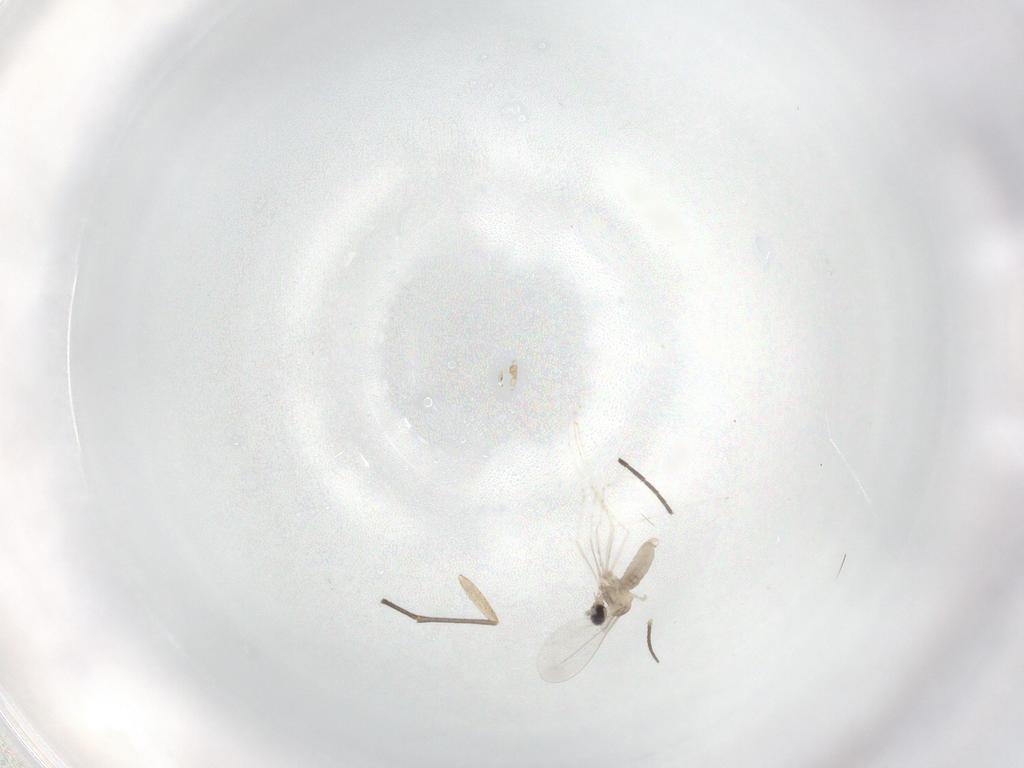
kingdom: Animalia
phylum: Arthropoda
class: Insecta
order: Diptera
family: Cecidomyiidae
